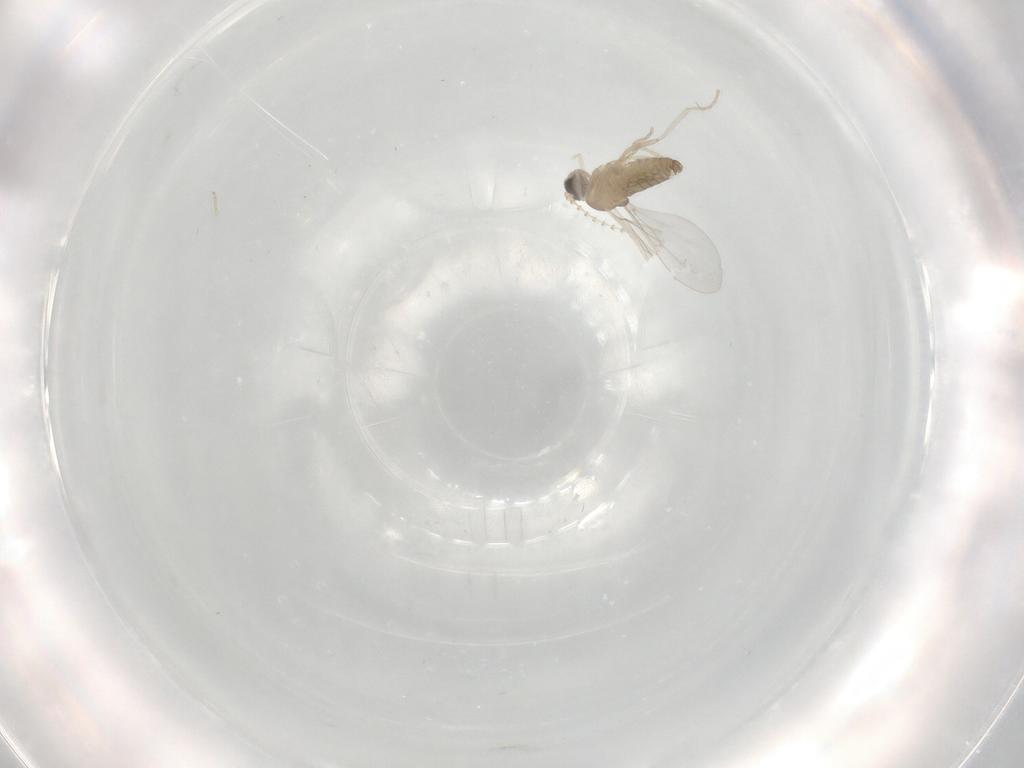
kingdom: Animalia
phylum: Arthropoda
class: Insecta
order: Diptera
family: Cecidomyiidae
